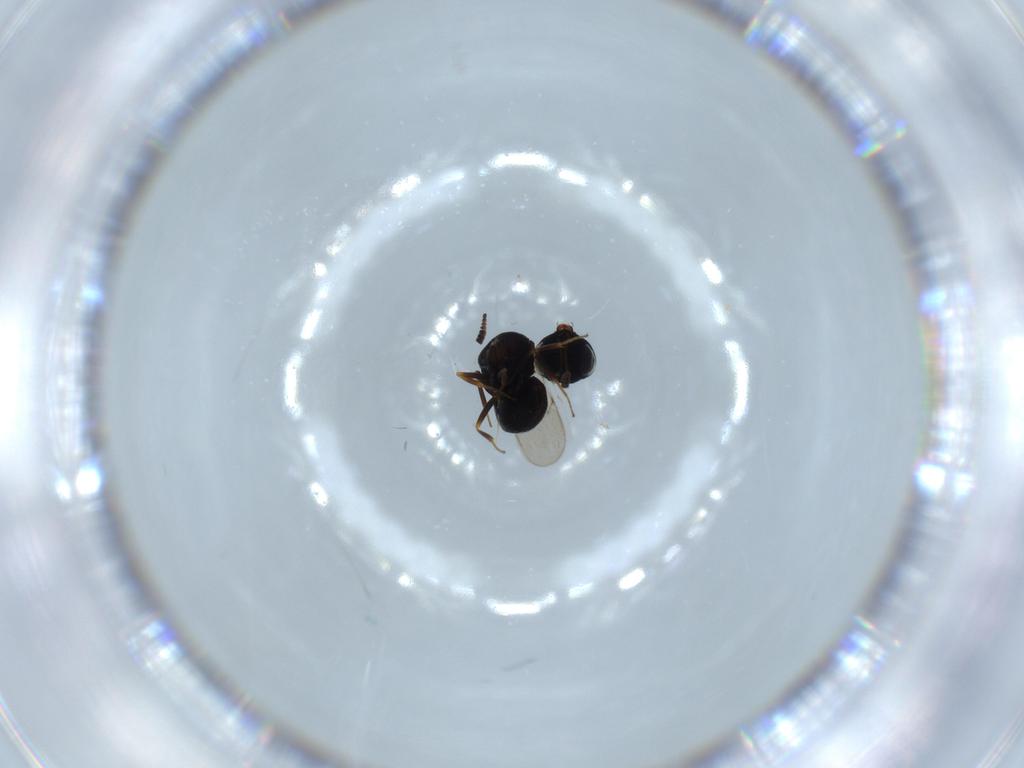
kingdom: Animalia
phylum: Arthropoda
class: Insecta
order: Hymenoptera
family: Scelionidae
